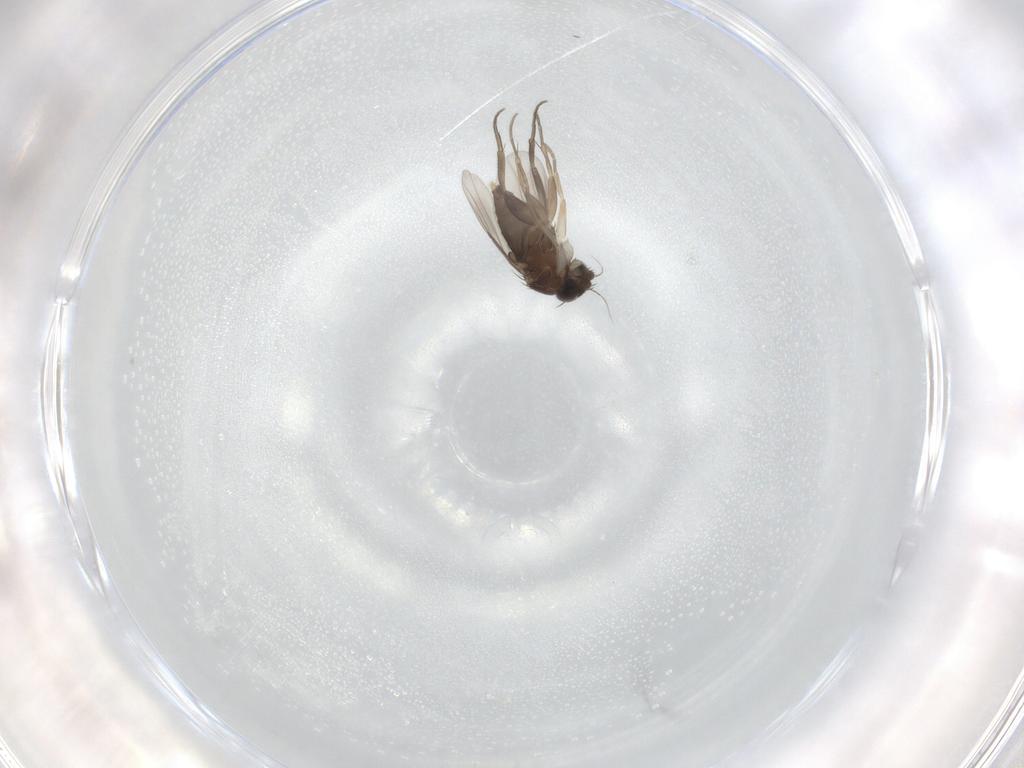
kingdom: Animalia
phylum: Arthropoda
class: Insecta
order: Diptera
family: Phoridae
